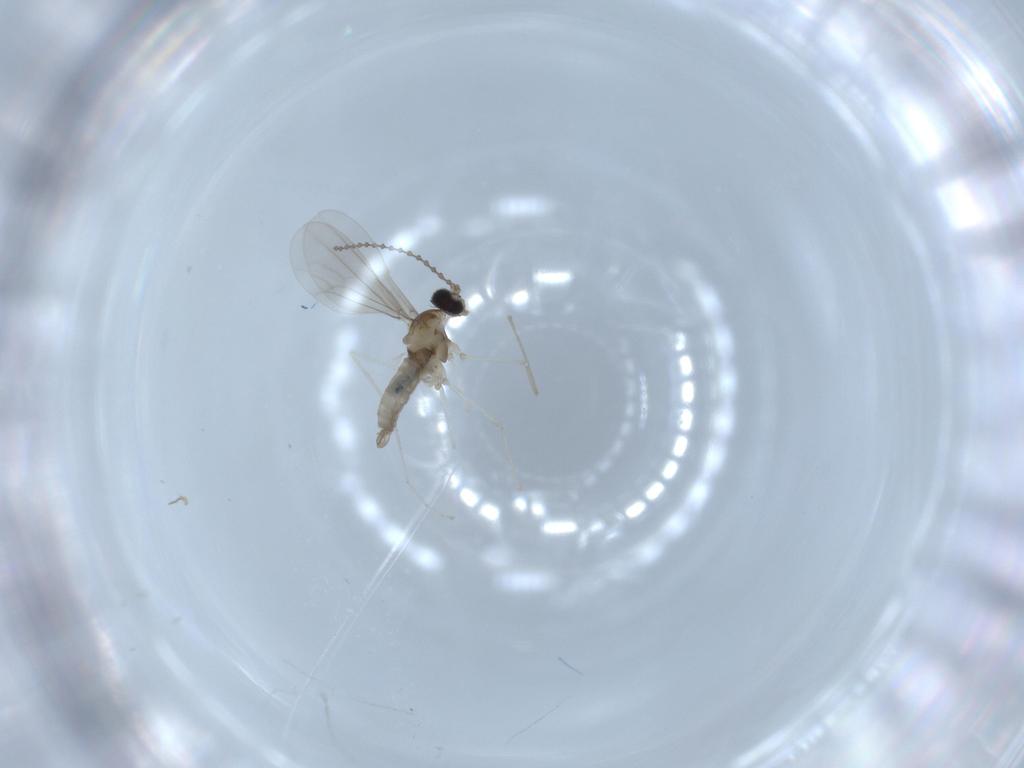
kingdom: Animalia
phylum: Arthropoda
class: Insecta
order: Diptera
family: Cecidomyiidae
